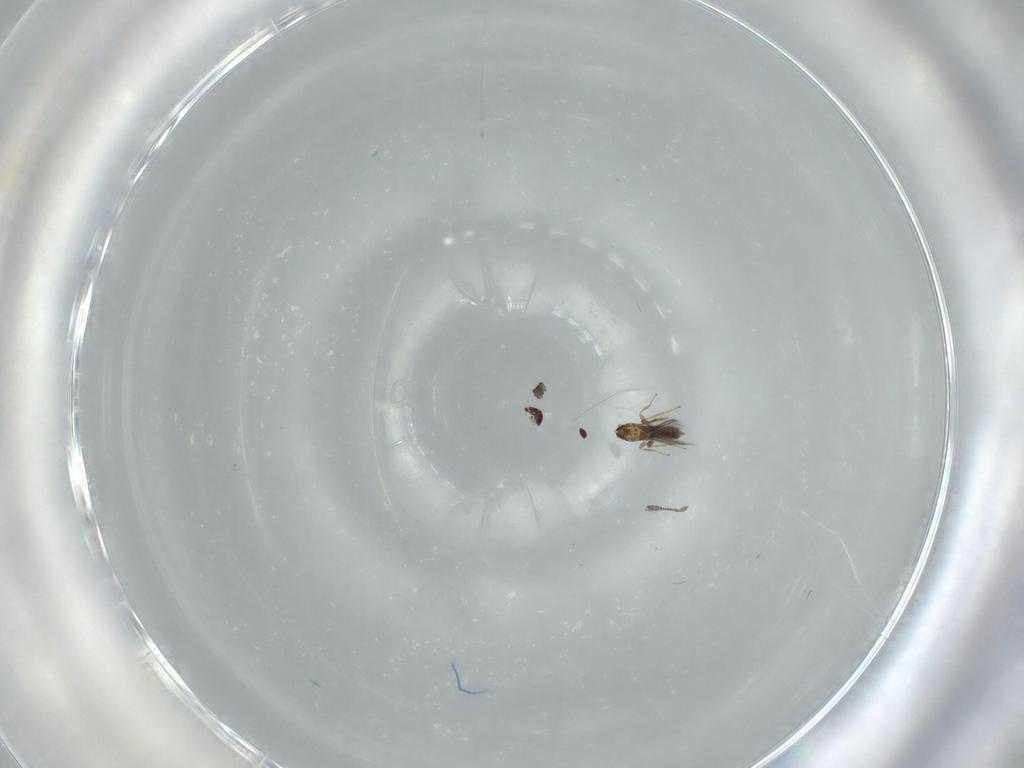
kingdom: Animalia
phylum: Arthropoda
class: Insecta
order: Hymenoptera
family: Mymaridae
